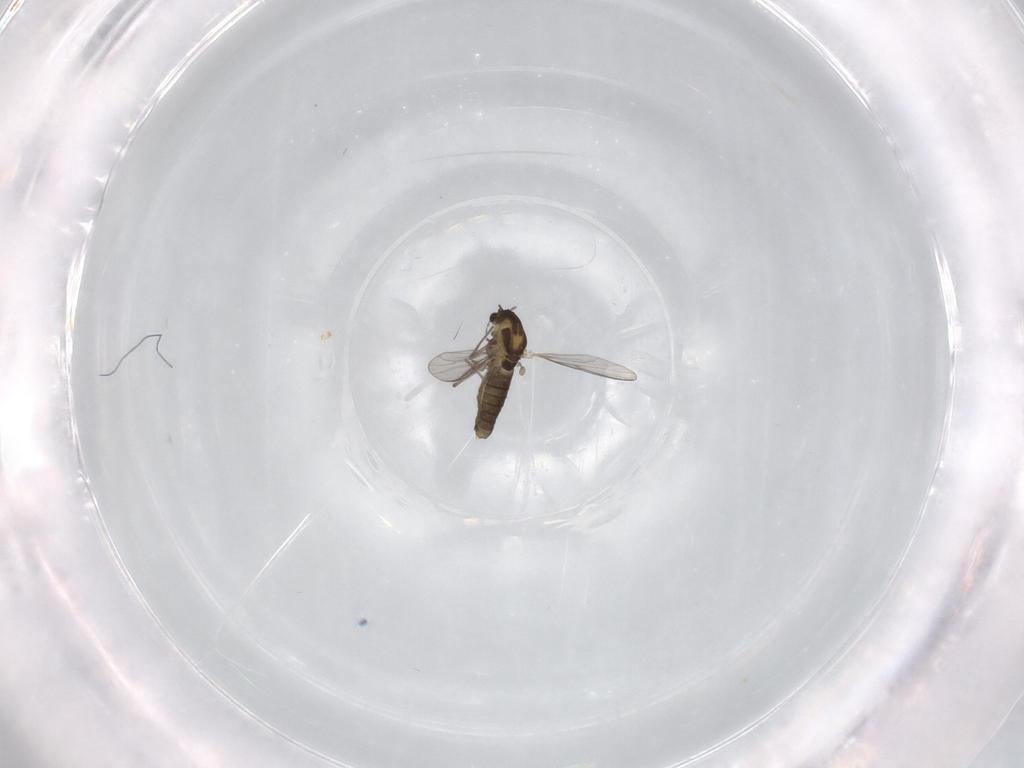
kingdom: Animalia
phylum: Arthropoda
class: Insecta
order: Diptera
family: Chironomidae
